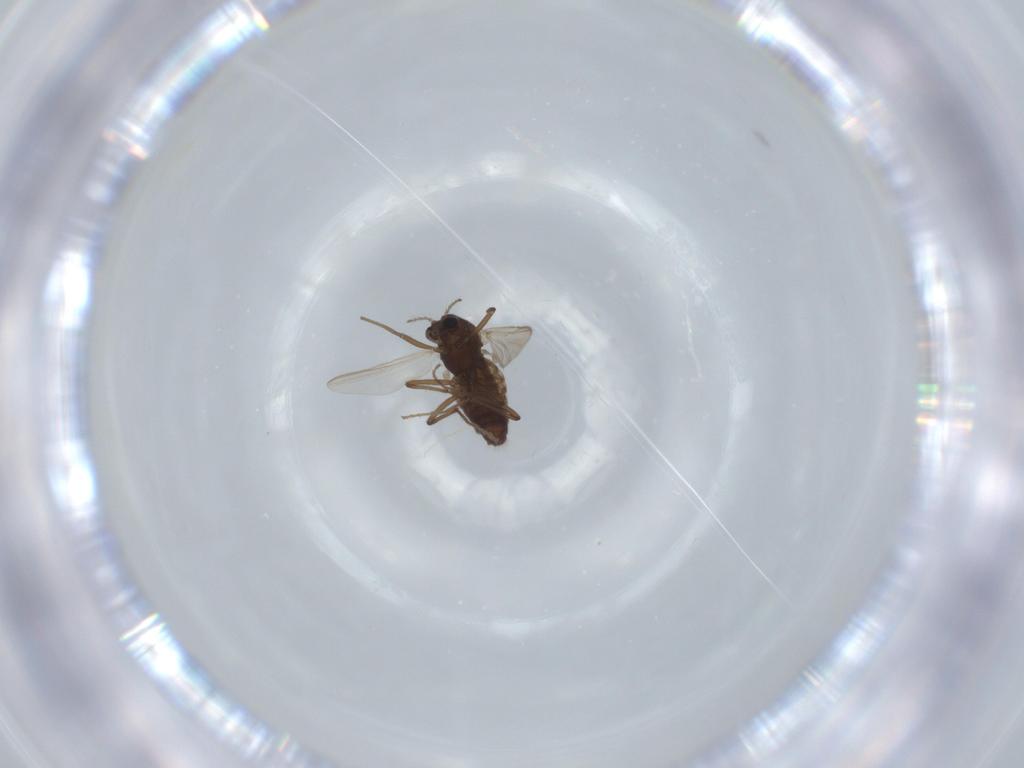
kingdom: Animalia
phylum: Arthropoda
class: Insecta
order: Diptera
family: Chironomidae
